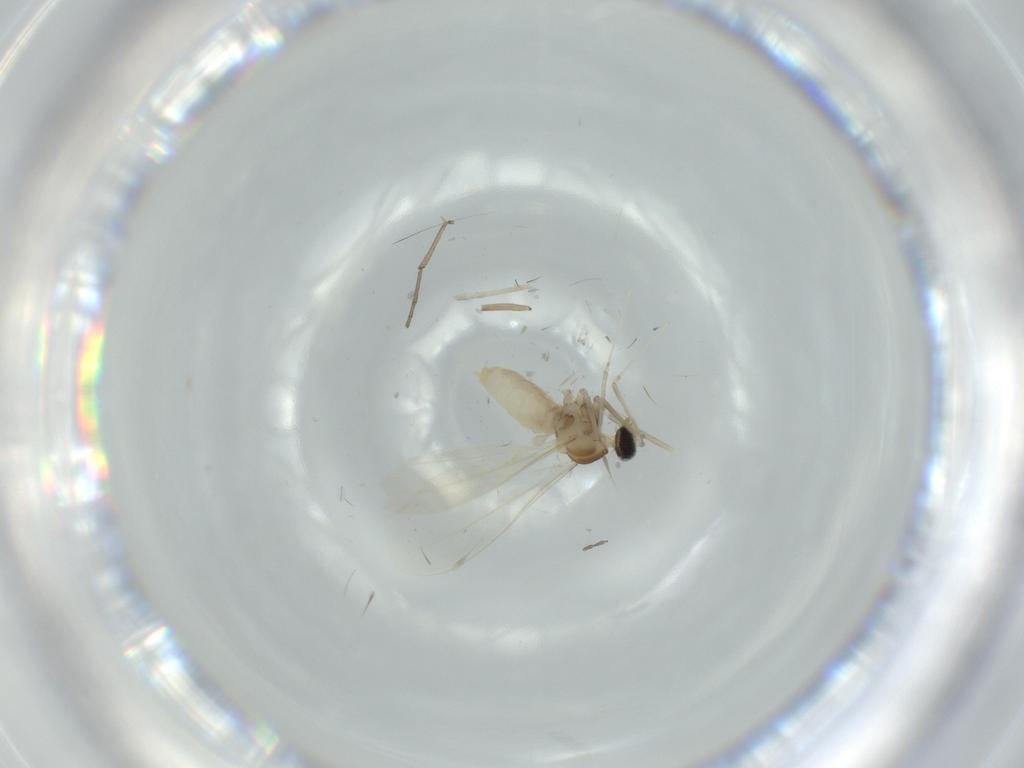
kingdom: Animalia
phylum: Arthropoda
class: Insecta
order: Diptera
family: Cecidomyiidae
